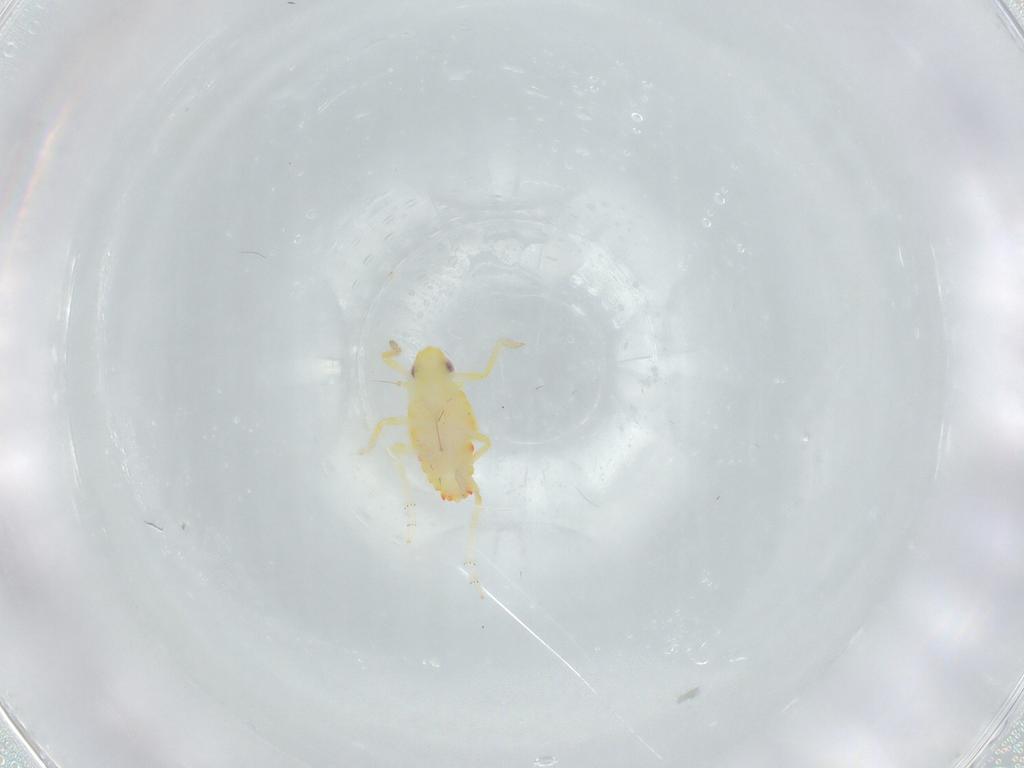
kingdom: Animalia
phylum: Arthropoda
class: Insecta
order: Hemiptera
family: Tropiduchidae
